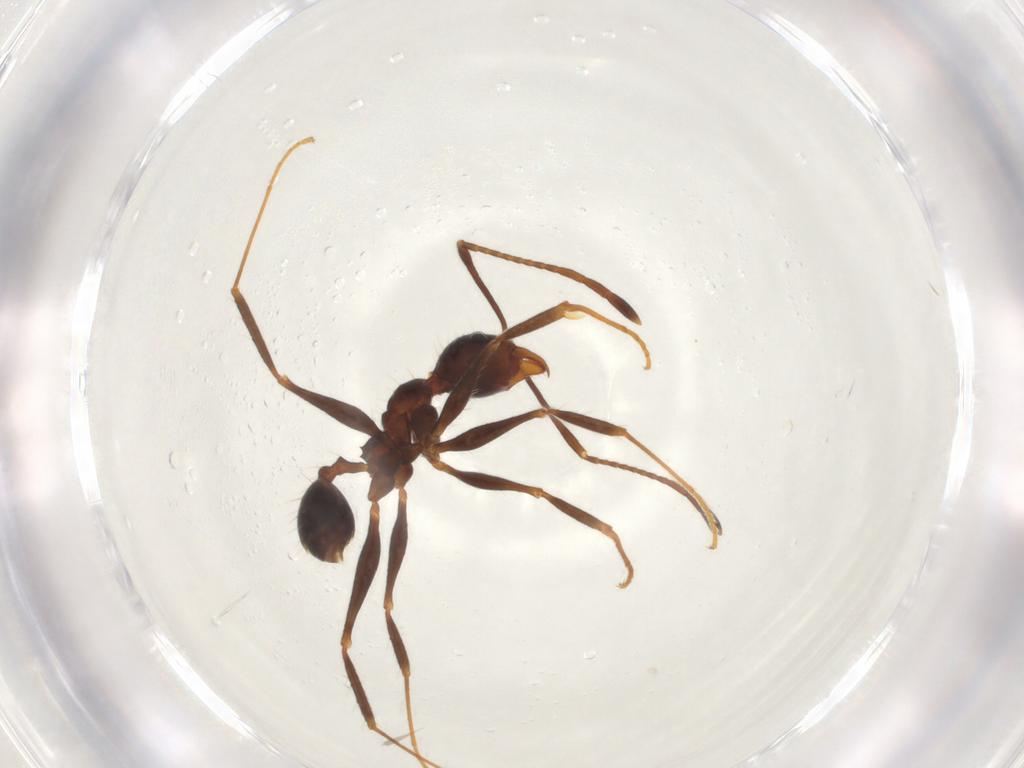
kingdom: Animalia
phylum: Arthropoda
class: Insecta
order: Hymenoptera
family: Formicidae
